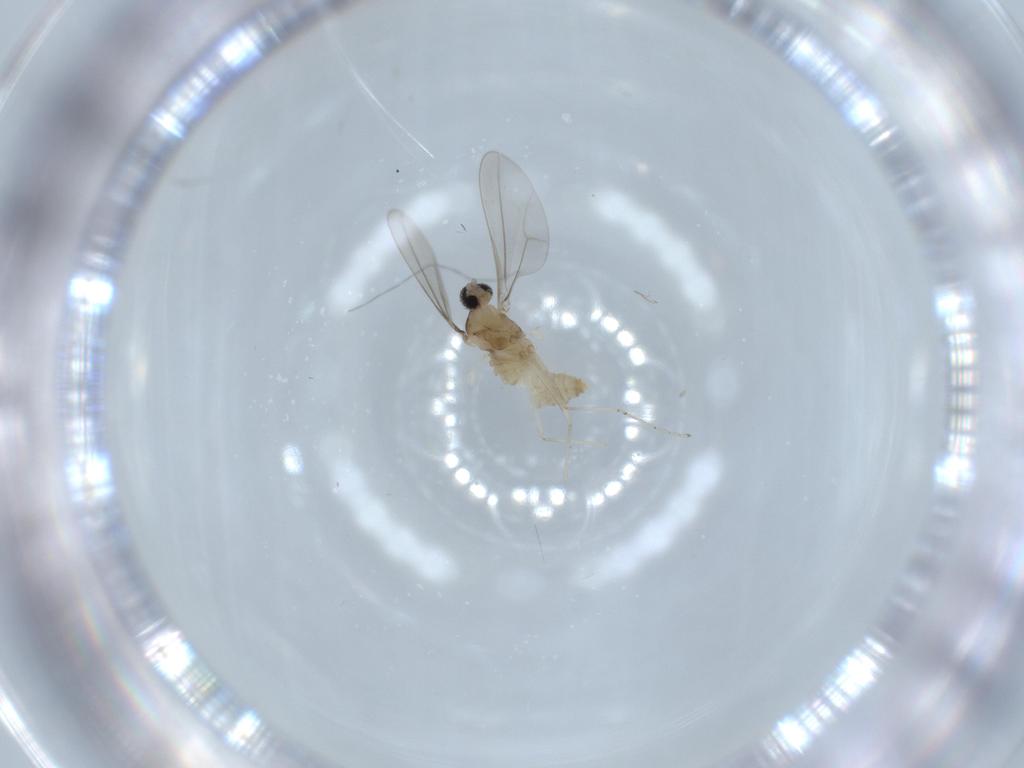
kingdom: Animalia
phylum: Arthropoda
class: Insecta
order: Diptera
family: Cecidomyiidae
